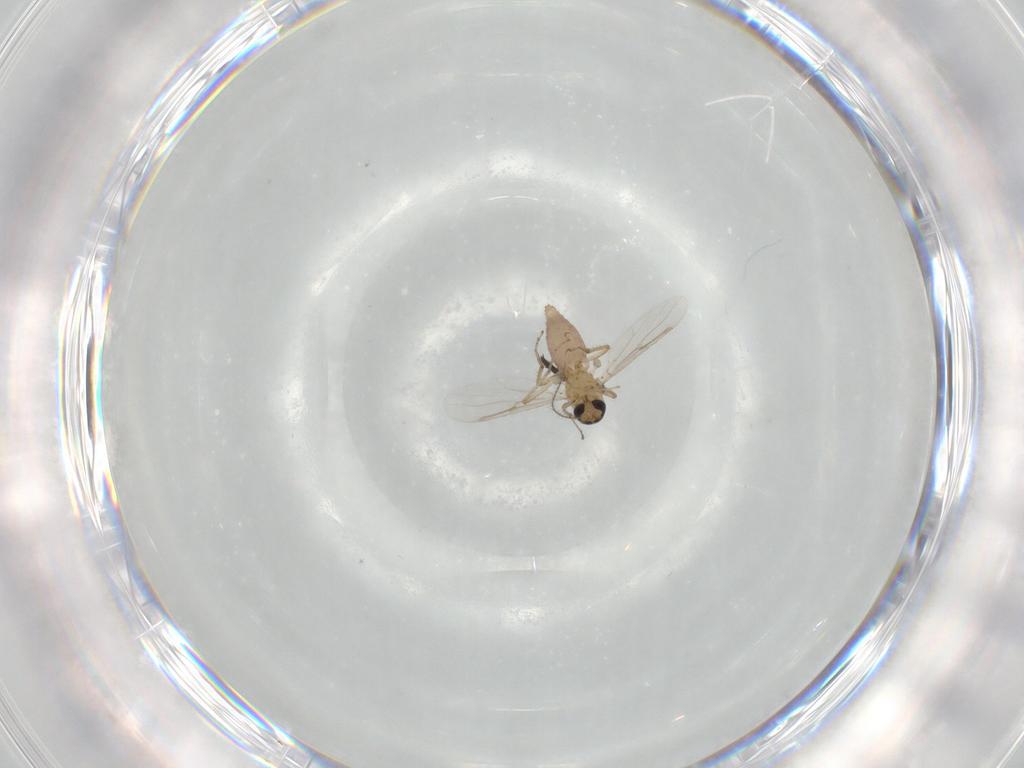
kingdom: Animalia
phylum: Arthropoda
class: Insecta
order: Diptera
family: Ceratopogonidae
